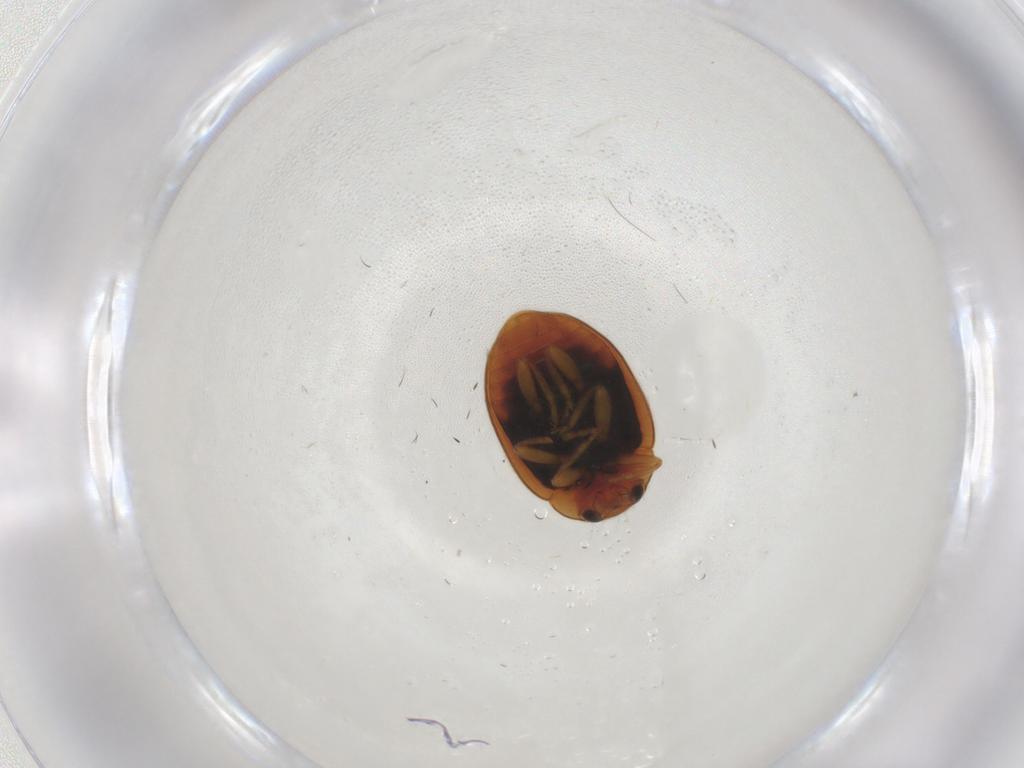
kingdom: Animalia
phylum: Arthropoda
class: Insecta
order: Coleoptera
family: Coccinellidae
